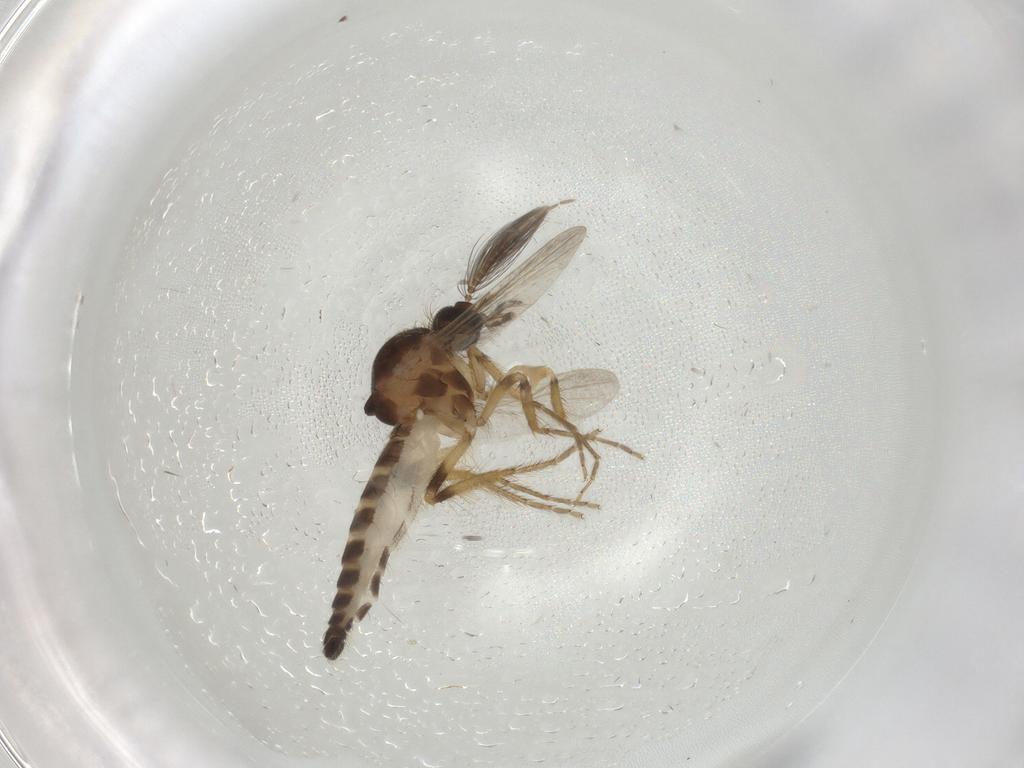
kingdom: Animalia
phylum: Arthropoda
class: Insecta
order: Diptera
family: Ceratopogonidae
